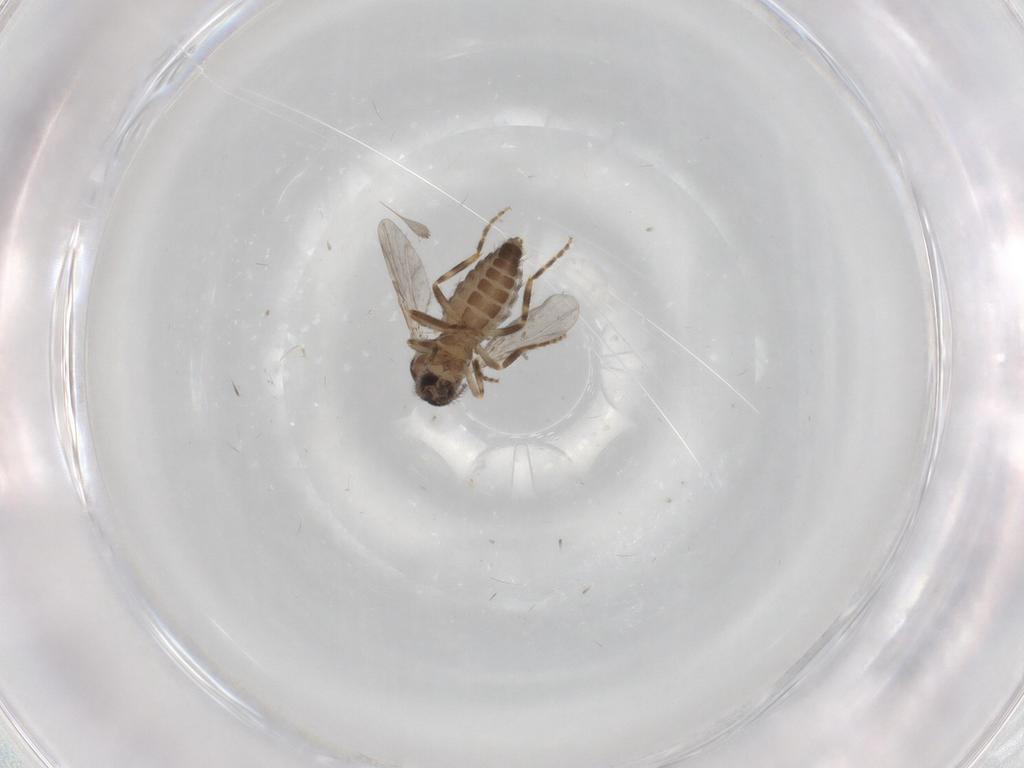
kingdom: Animalia
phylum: Arthropoda
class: Insecta
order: Diptera
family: Ceratopogonidae
